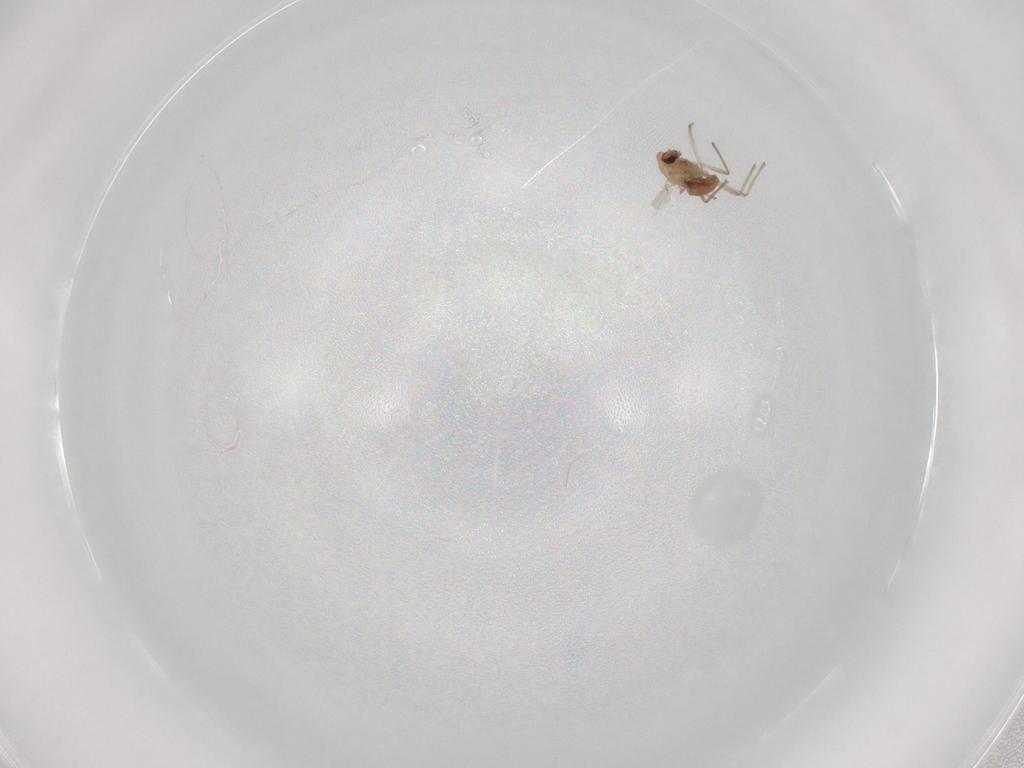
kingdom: Animalia
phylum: Arthropoda
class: Insecta
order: Diptera
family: Chironomidae
